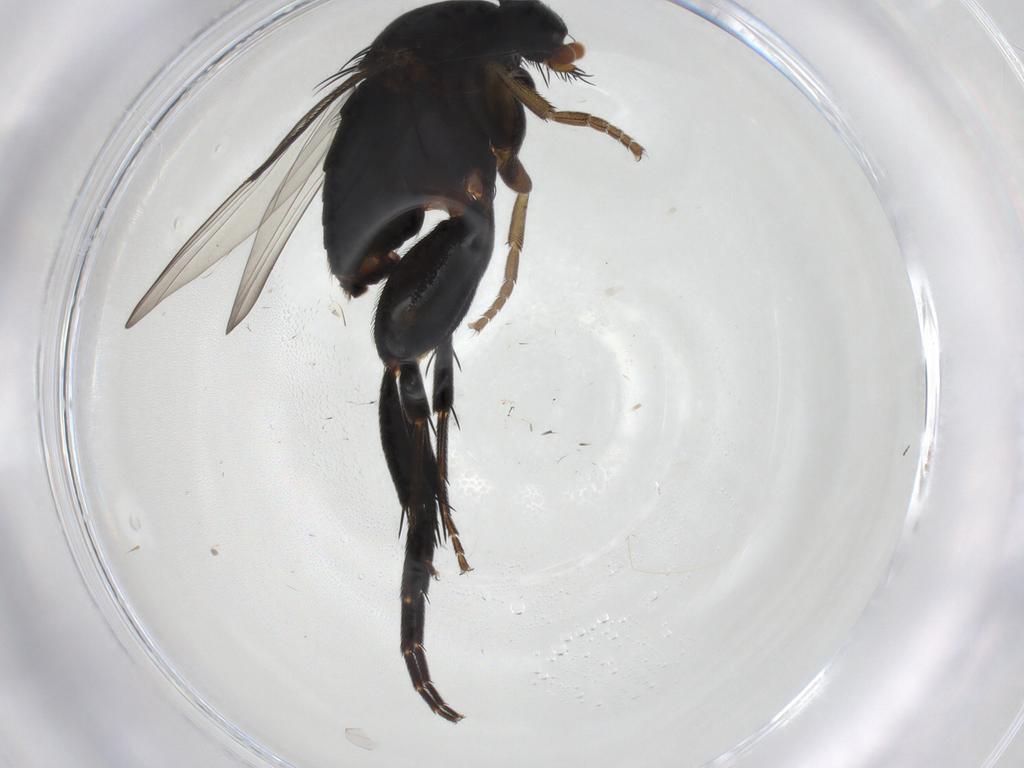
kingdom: Animalia
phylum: Arthropoda
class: Insecta
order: Diptera
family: Phoridae
